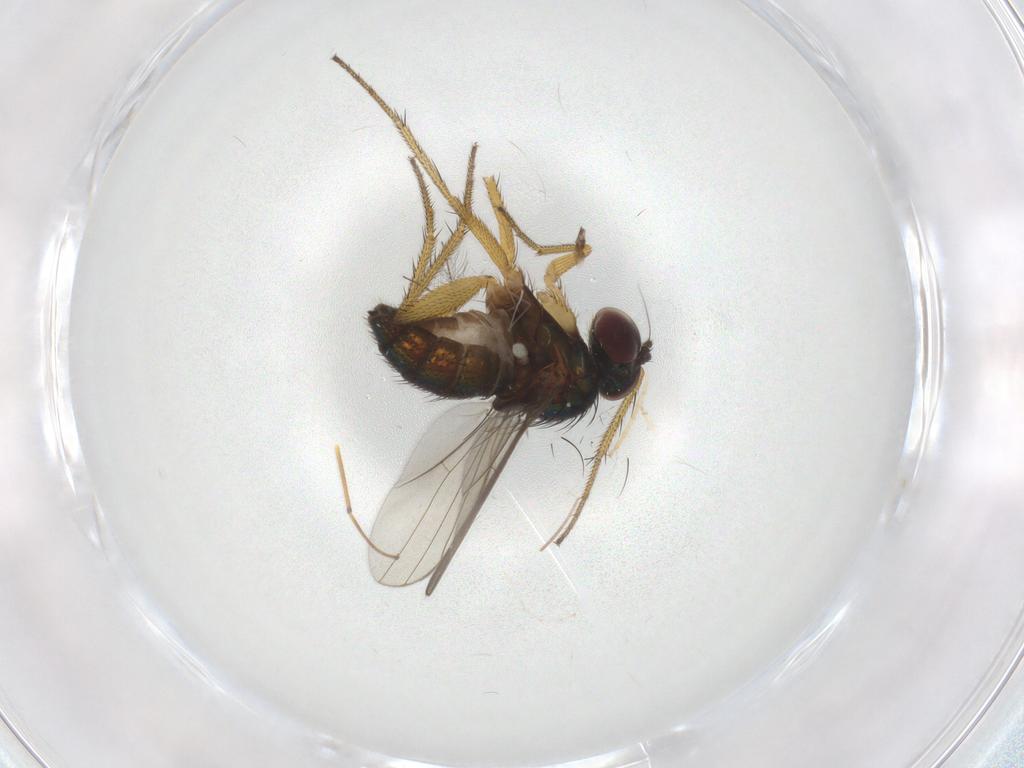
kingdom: Animalia
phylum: Arthropoda
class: Insecta
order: Diptera
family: Chironomidae
